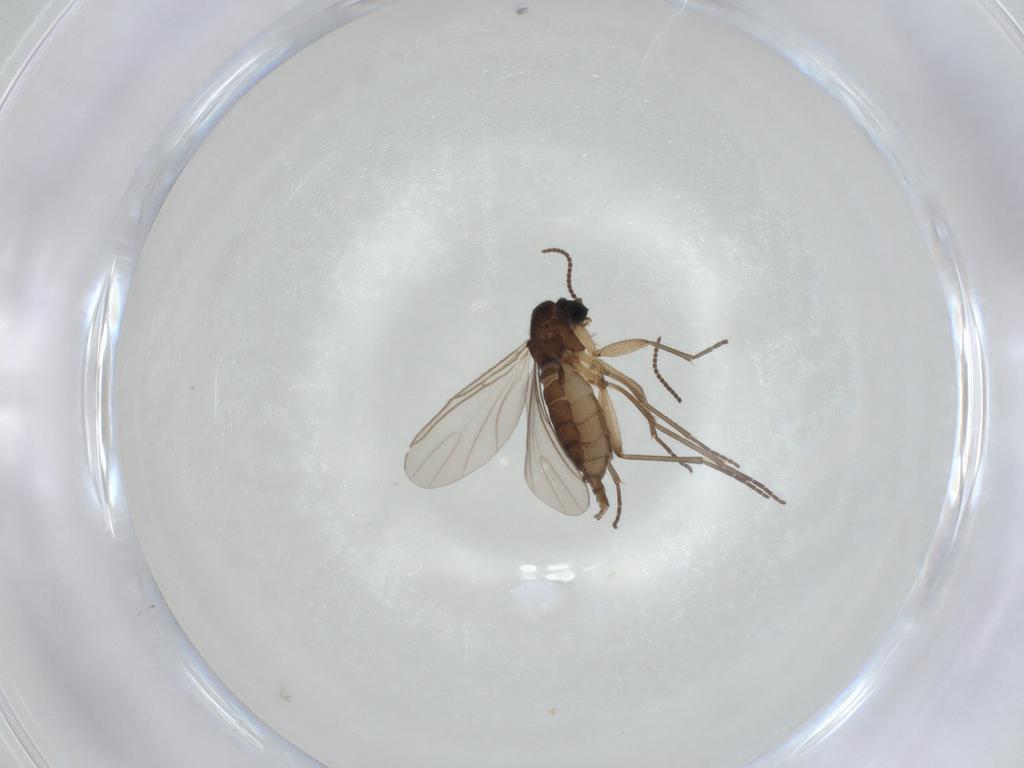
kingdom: Animalia
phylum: Arthropoda
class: Insecta
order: Diptera
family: Sciaridae
